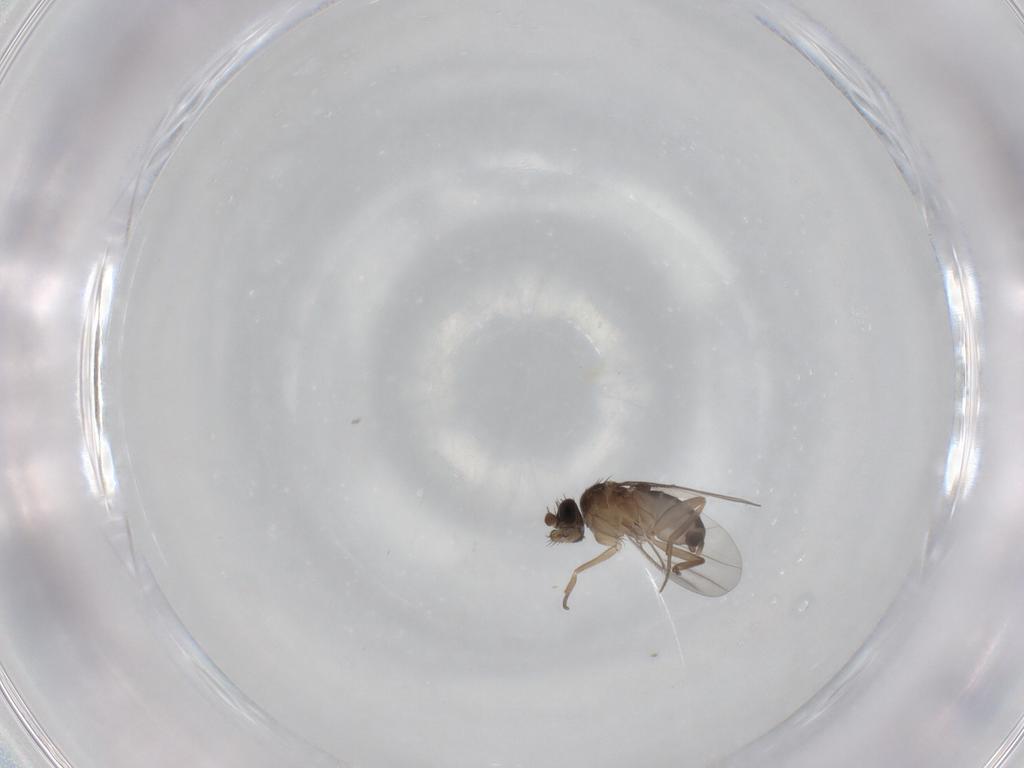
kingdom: Animalia
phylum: Arthropoda
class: Insecta
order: Diptera
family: Phoridae
